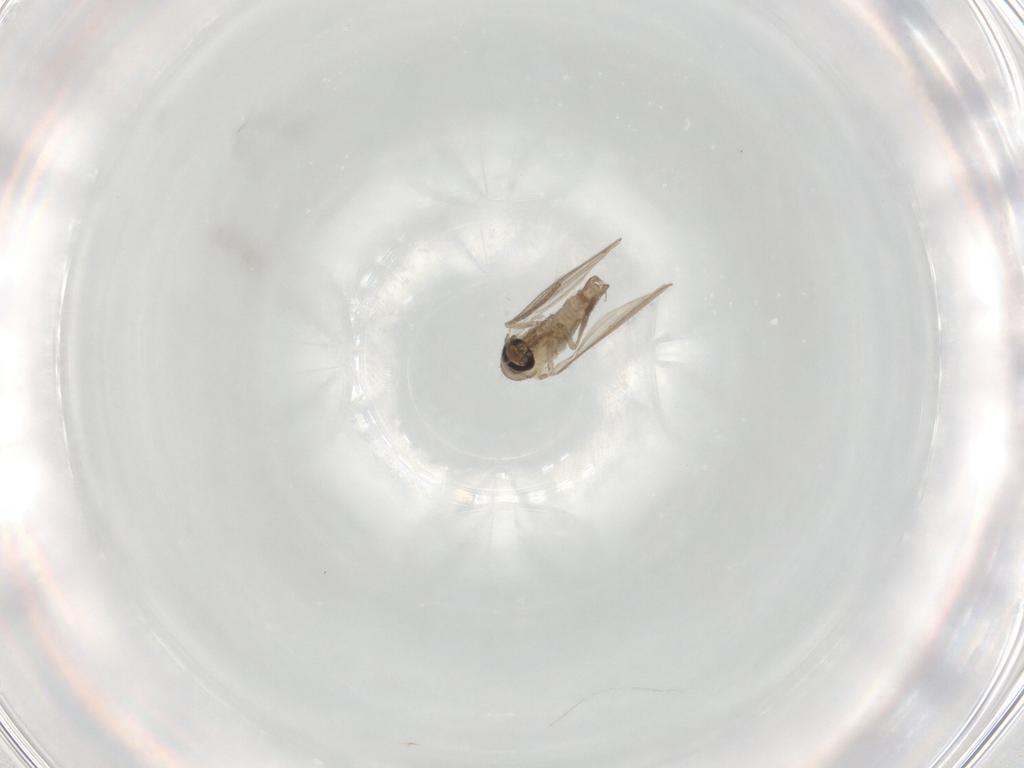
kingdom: Animalia
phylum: Arthropoda
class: Insecta
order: Diptera
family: Psychodidae
